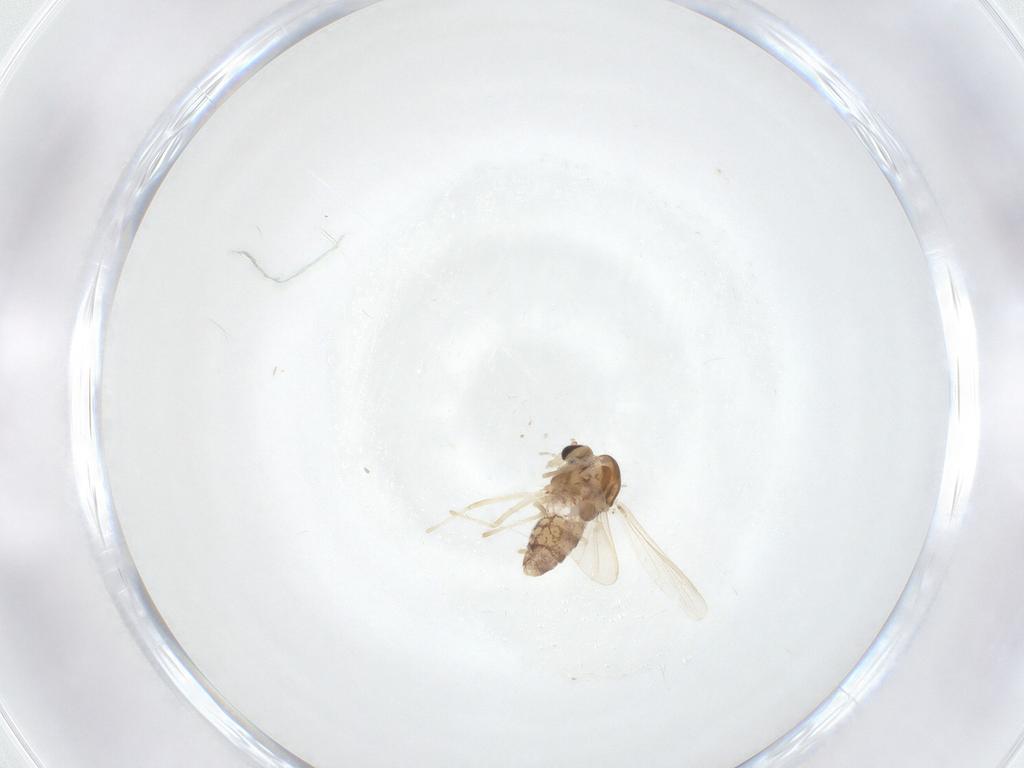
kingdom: Animalia
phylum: Arthropoda
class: Insecta
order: Diptera
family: Chironomidae
